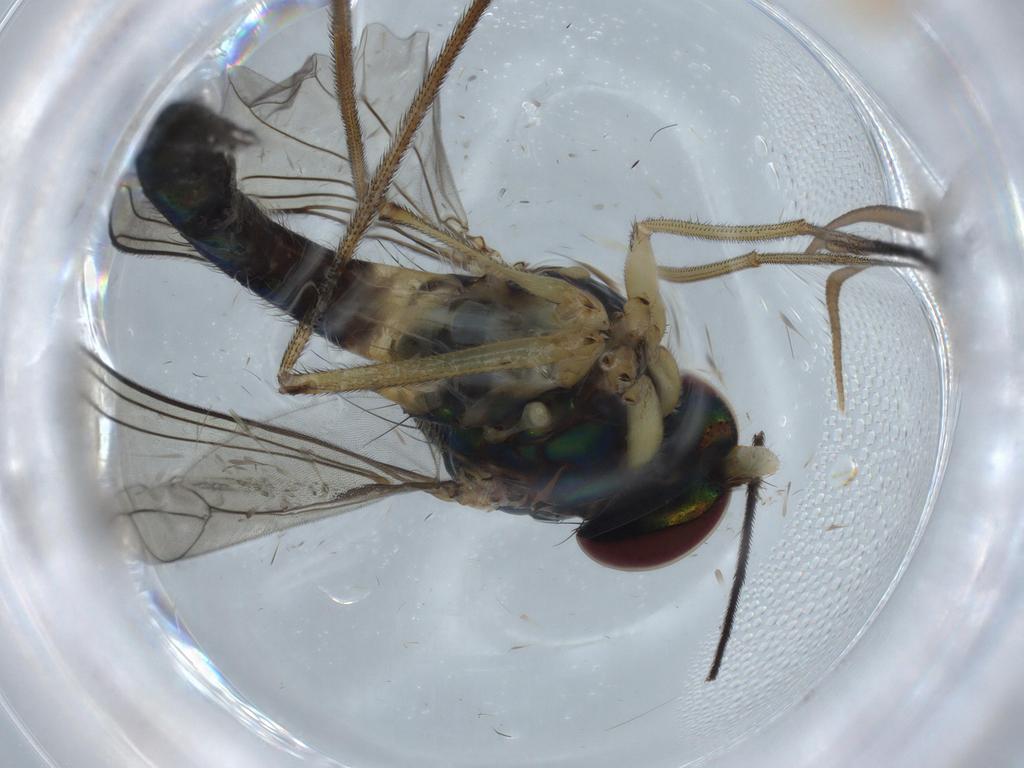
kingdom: Animalia
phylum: Arthropoda
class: Insecta
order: Diptera
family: Dolichopodidae
